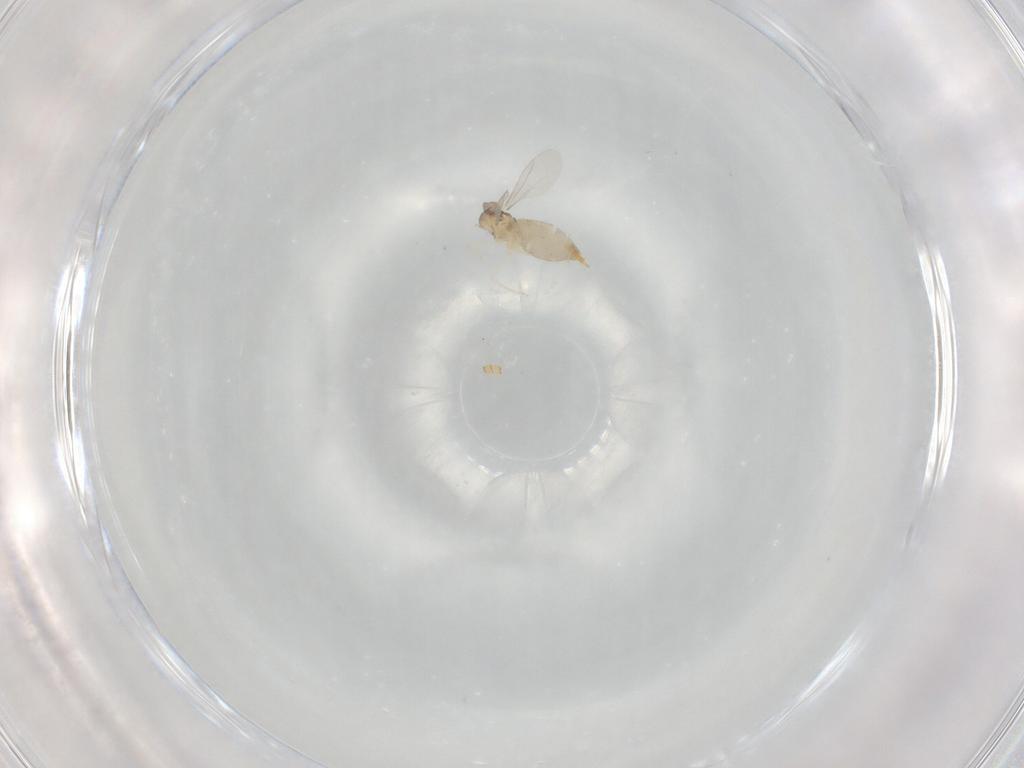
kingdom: Animalia
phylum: Arthropoda
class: Insecta
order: Diptera
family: Cecidomyiidae
